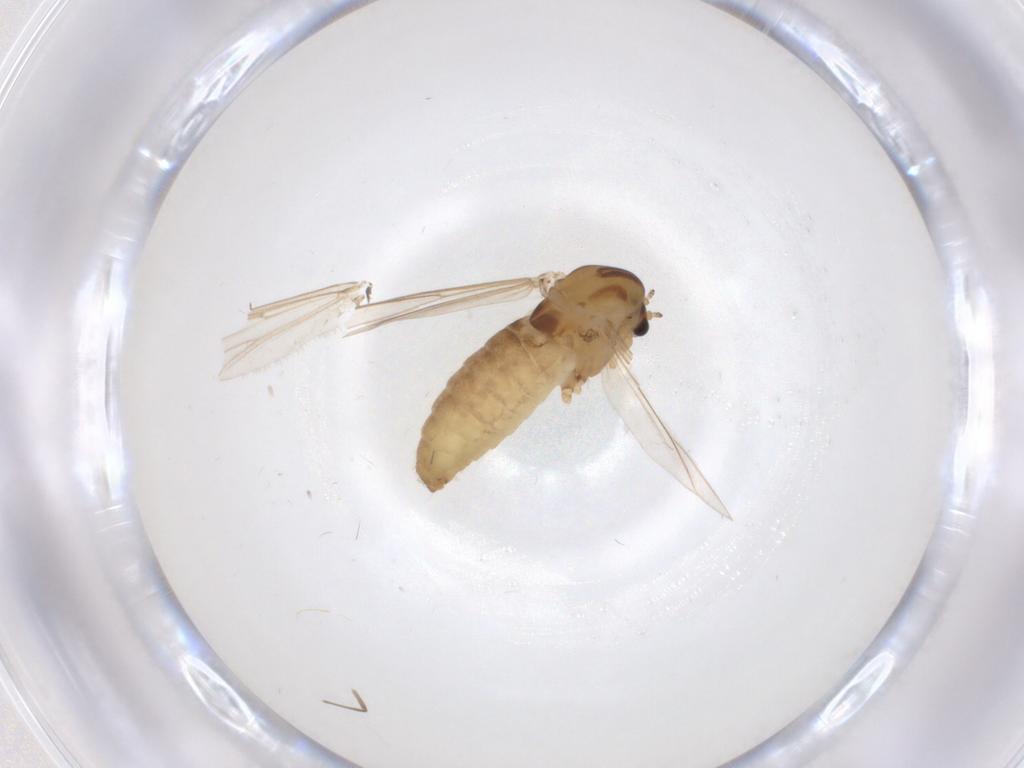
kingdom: Animalia
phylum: Arthropoda
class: Insecta
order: Diptera
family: Chironomidae
